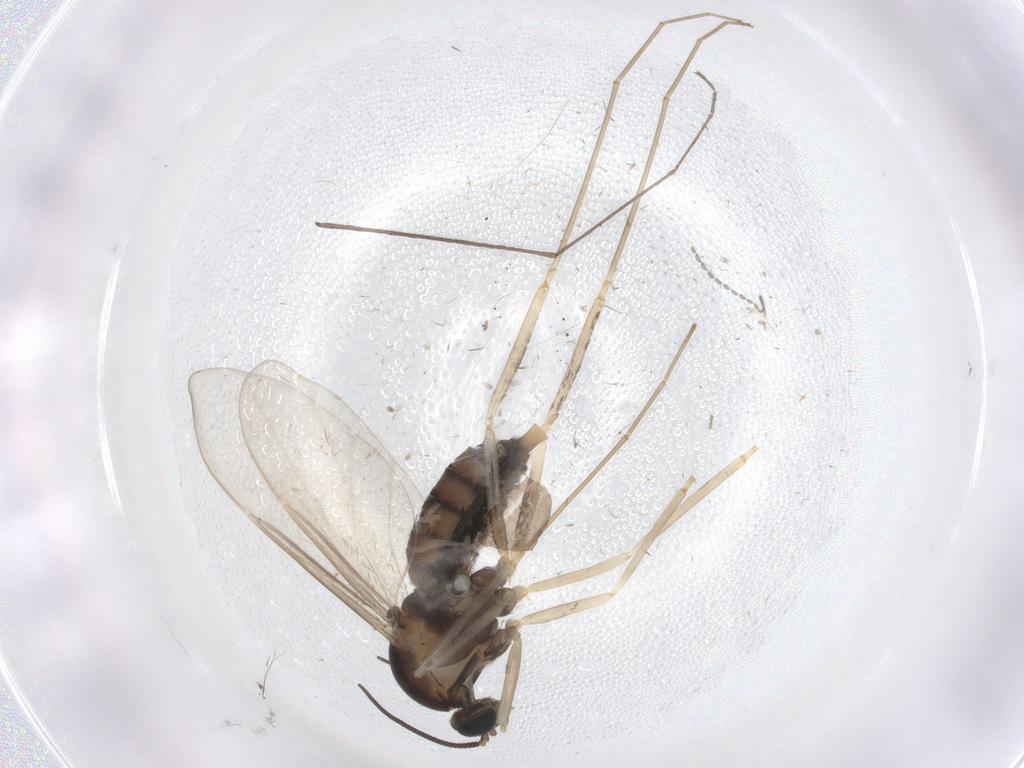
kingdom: Animalia
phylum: Arthropoda
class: Insecta
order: Diptera
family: Cecidomyiidae
